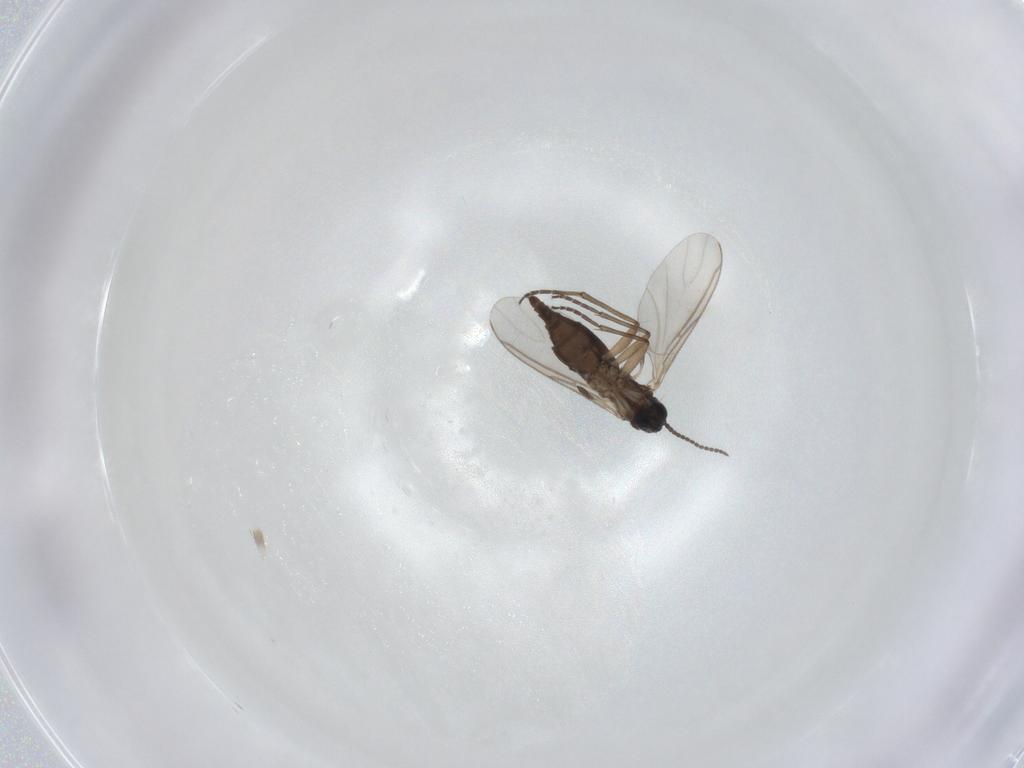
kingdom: Animalia
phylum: Arthropoda
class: Insecta
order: Diptera
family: Sciaridae
